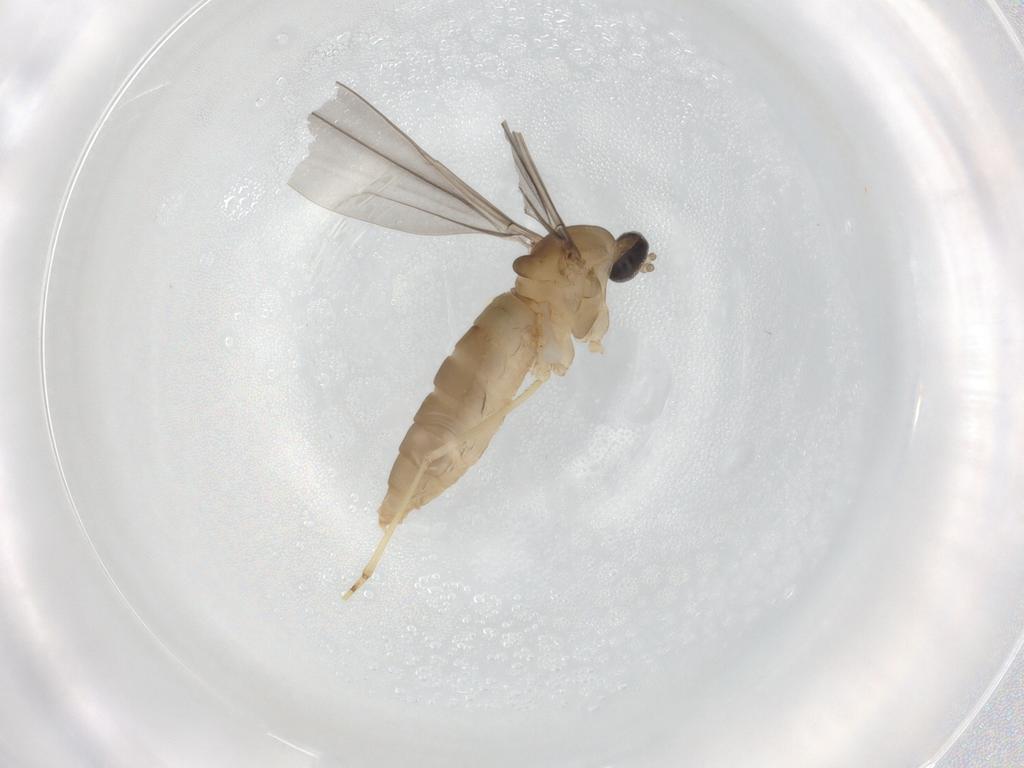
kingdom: Animalia
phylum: Arthropoda
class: Insecta
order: Diptera
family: Cecidomyiidae
